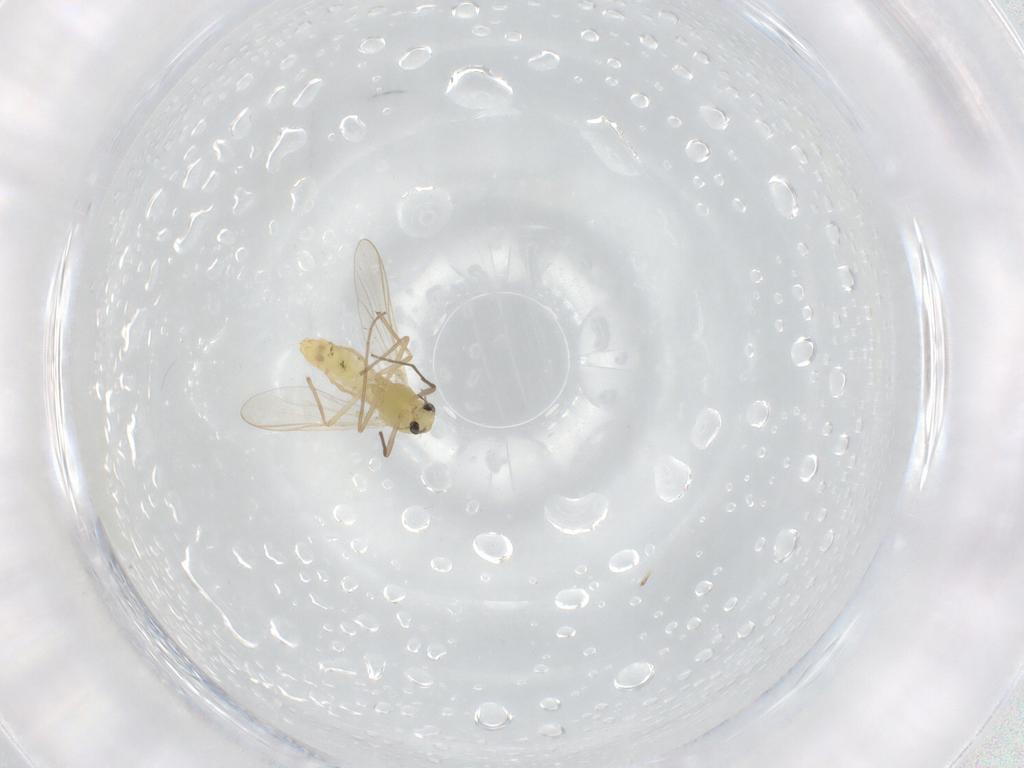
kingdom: Animalia
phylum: Arthropoda
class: Insecta
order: Diptera
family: Chironomidae
